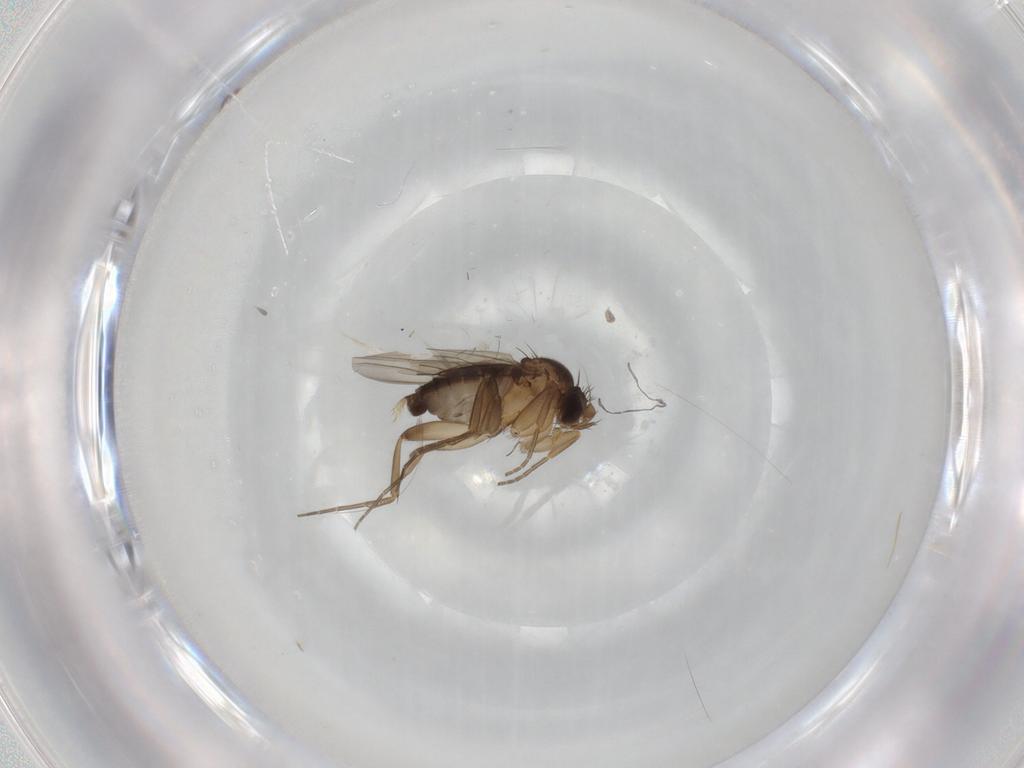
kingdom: Animalia
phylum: Arthropoda
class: Insecta
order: Diptera
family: Phoridae
